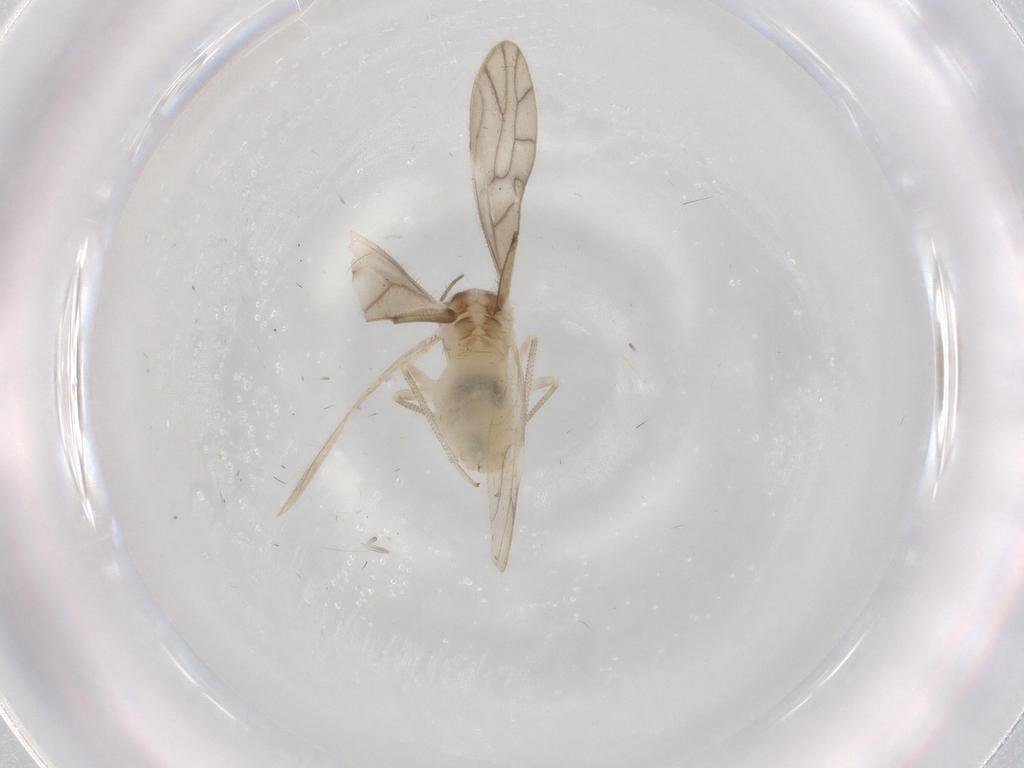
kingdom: Animalia
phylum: Arthropoda
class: Insecta
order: Psocodea
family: Caeciliusidae
